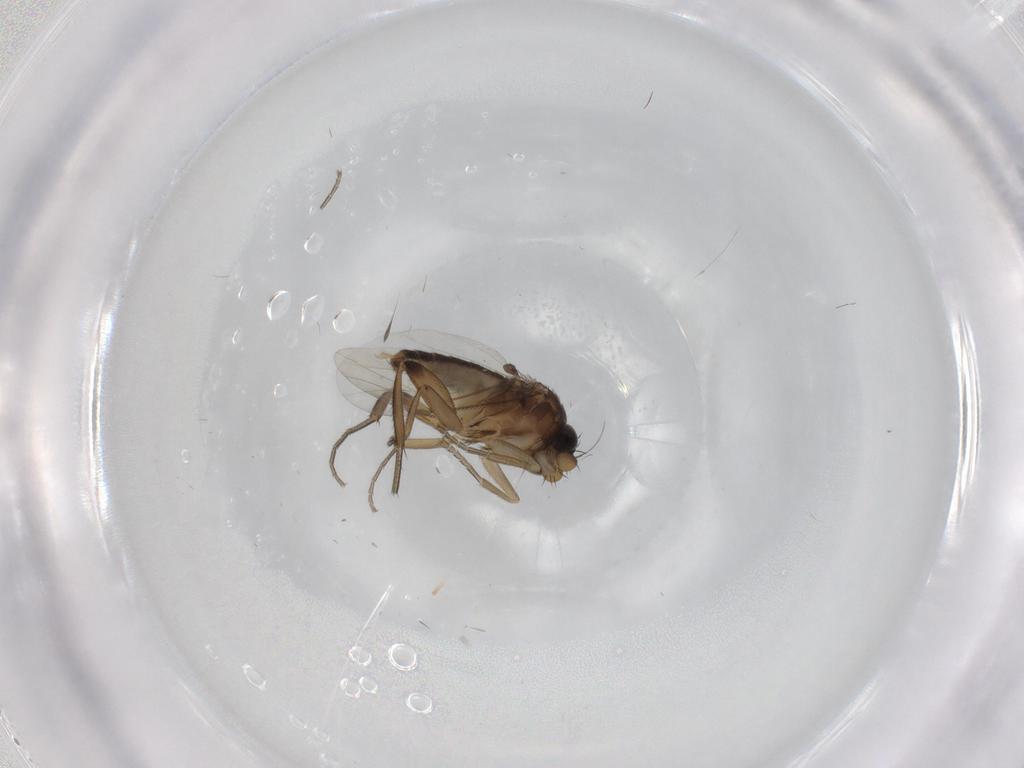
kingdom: Animalia
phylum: Arthropoda
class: Insecta
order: Diptera
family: Phoridae
